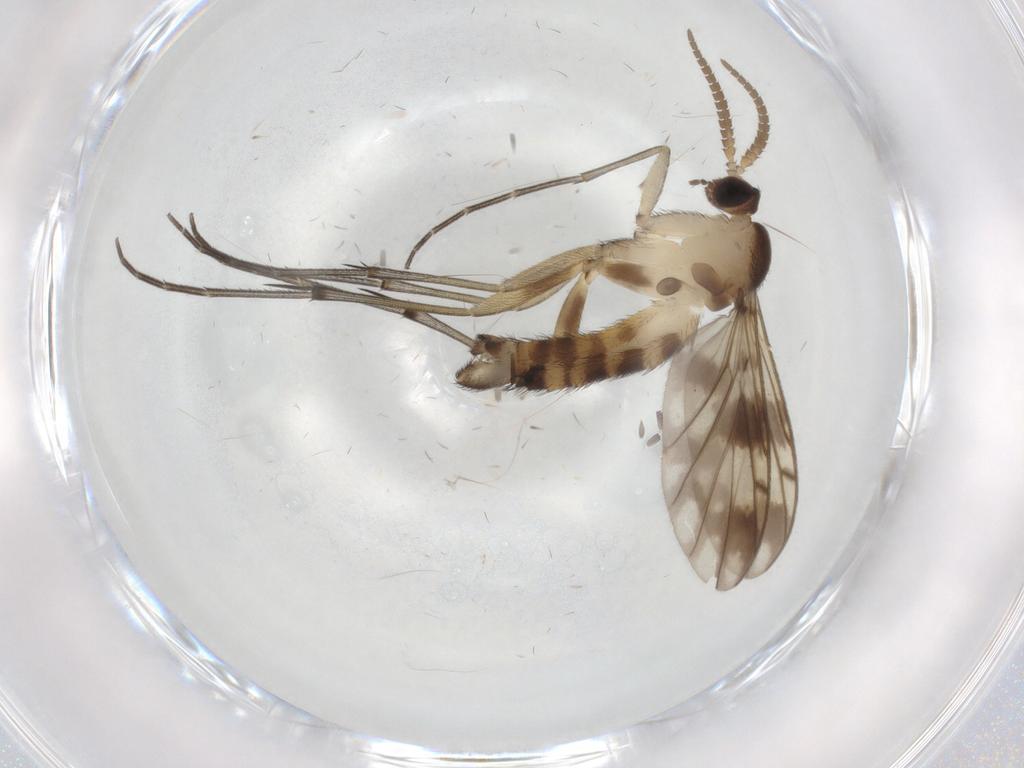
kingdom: Animalia
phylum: Arthropoda
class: Insecta
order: Diptera
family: Keroplatidae
